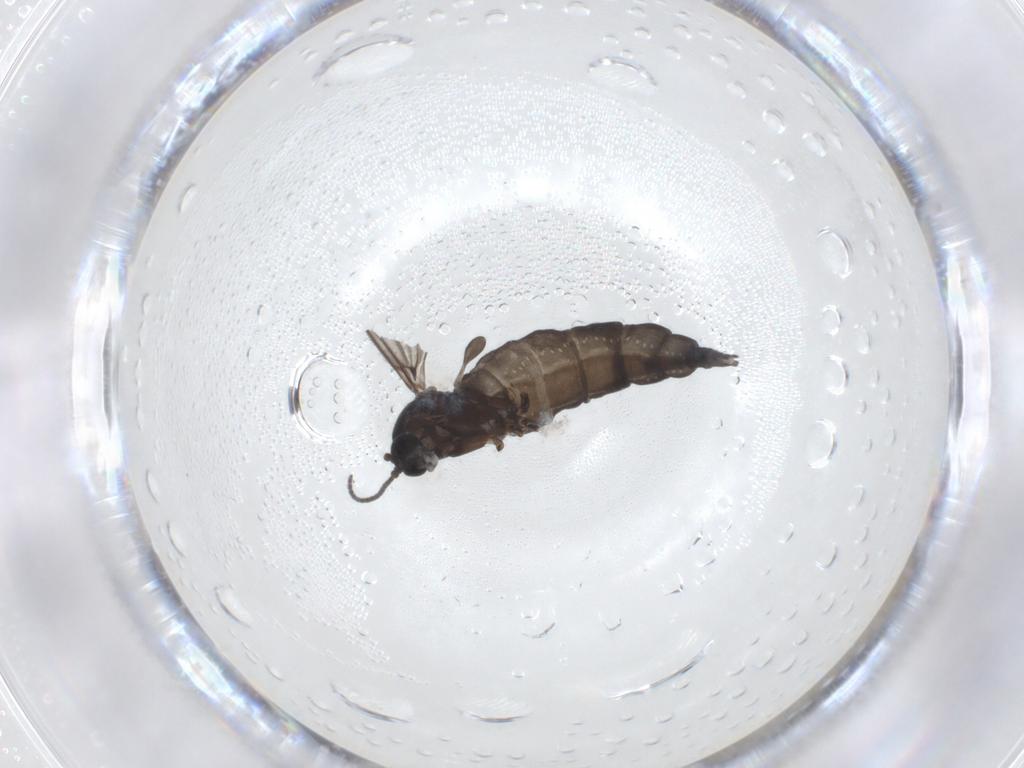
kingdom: Animalia
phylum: Arthropoda
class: Insecta
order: Diptera
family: Sciaridae
